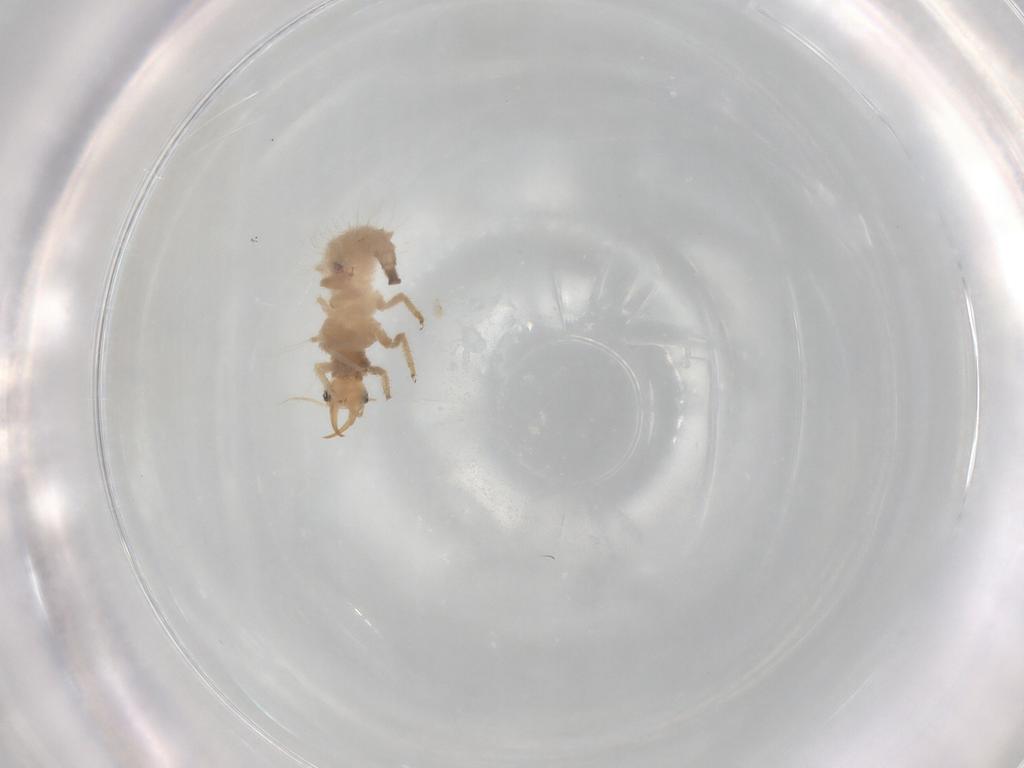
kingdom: Animalia
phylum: Arthropoda
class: Insecta
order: Neuroptera
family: Chrysopidae
